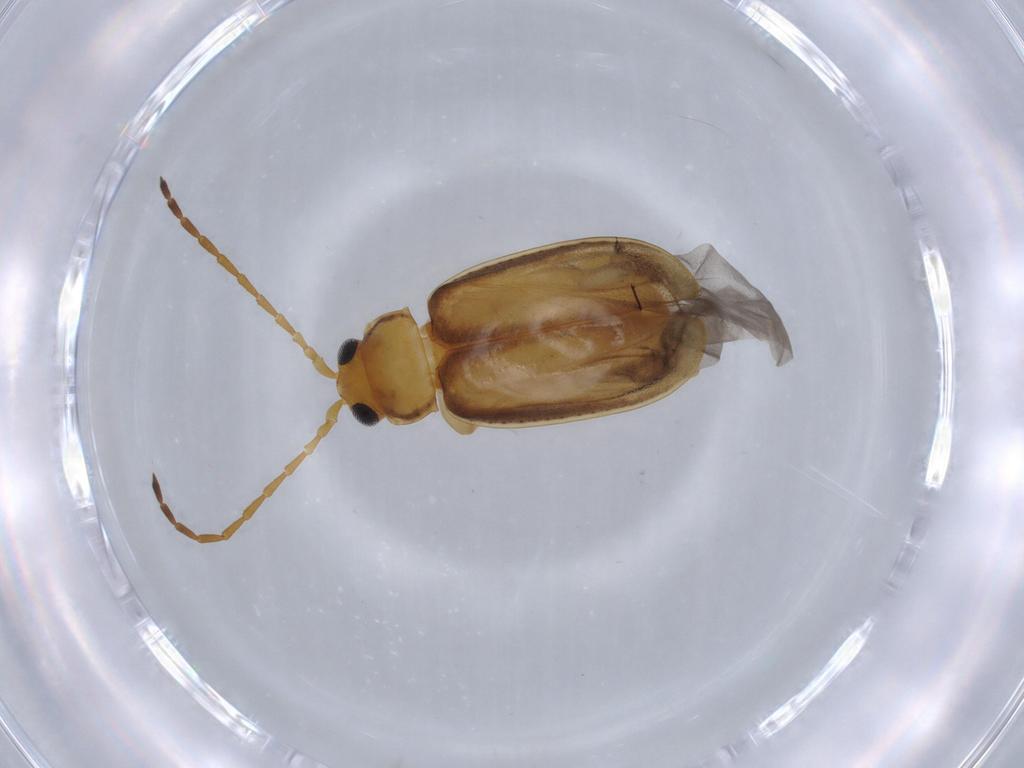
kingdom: Animalia
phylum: Arthropoda
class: Insecta
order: Coleoptera
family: Chrysomelidae
